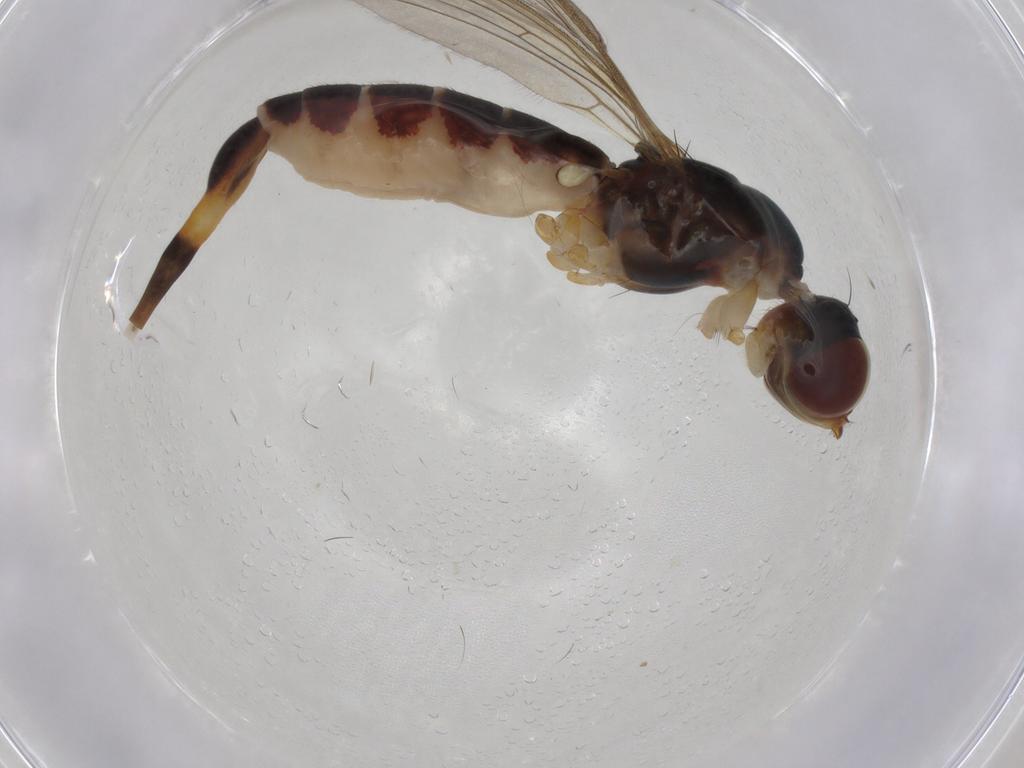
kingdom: Animalia
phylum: Arthropoda
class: Insecta
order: Diptera
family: Micropezidae
